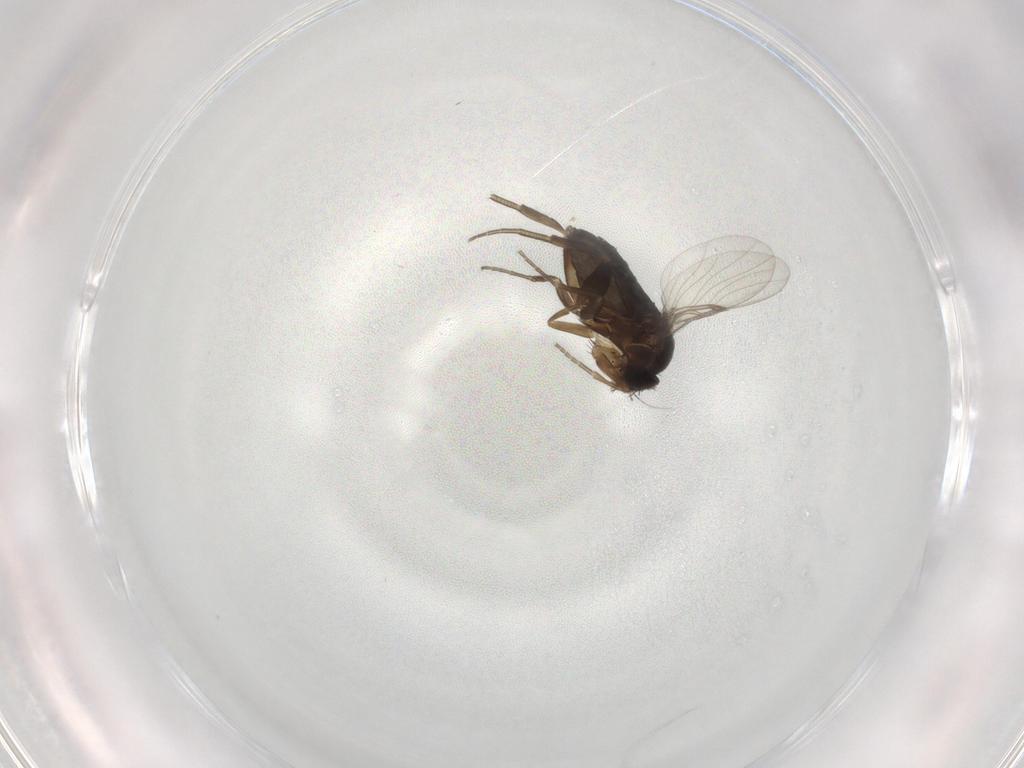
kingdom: Animalia
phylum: Arthropoda
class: Insecta
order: Diptera
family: Phoridae
